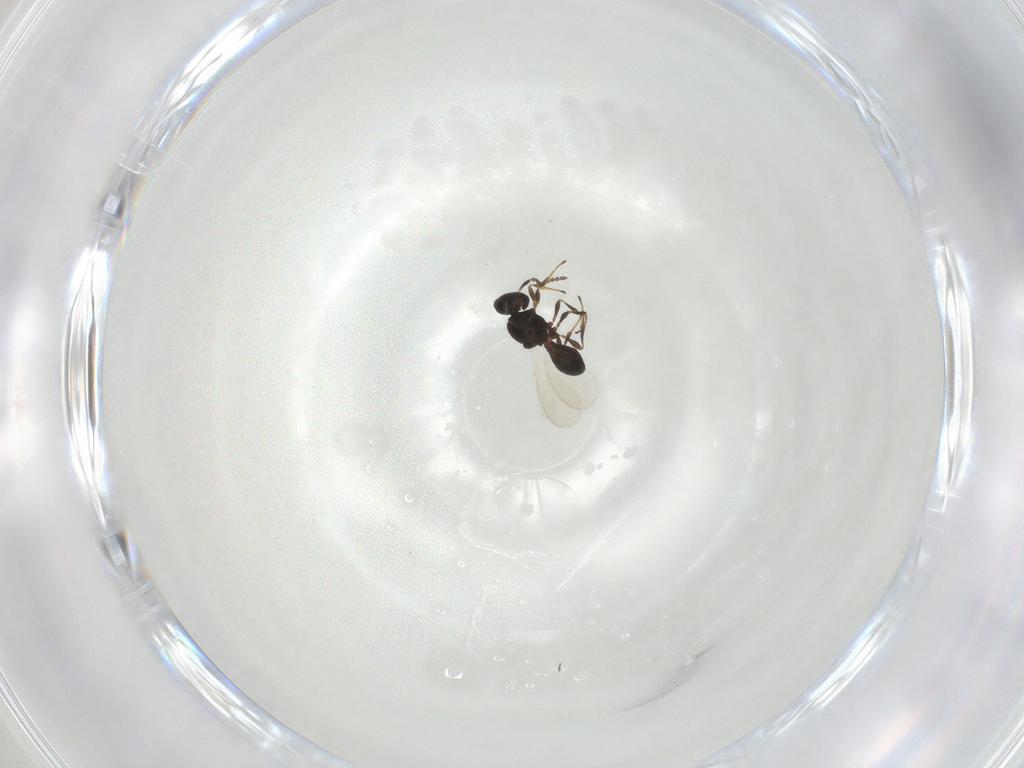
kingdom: Animalia
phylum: Arthropoda
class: Insecta
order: Hymenoptera
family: Platygastridae
